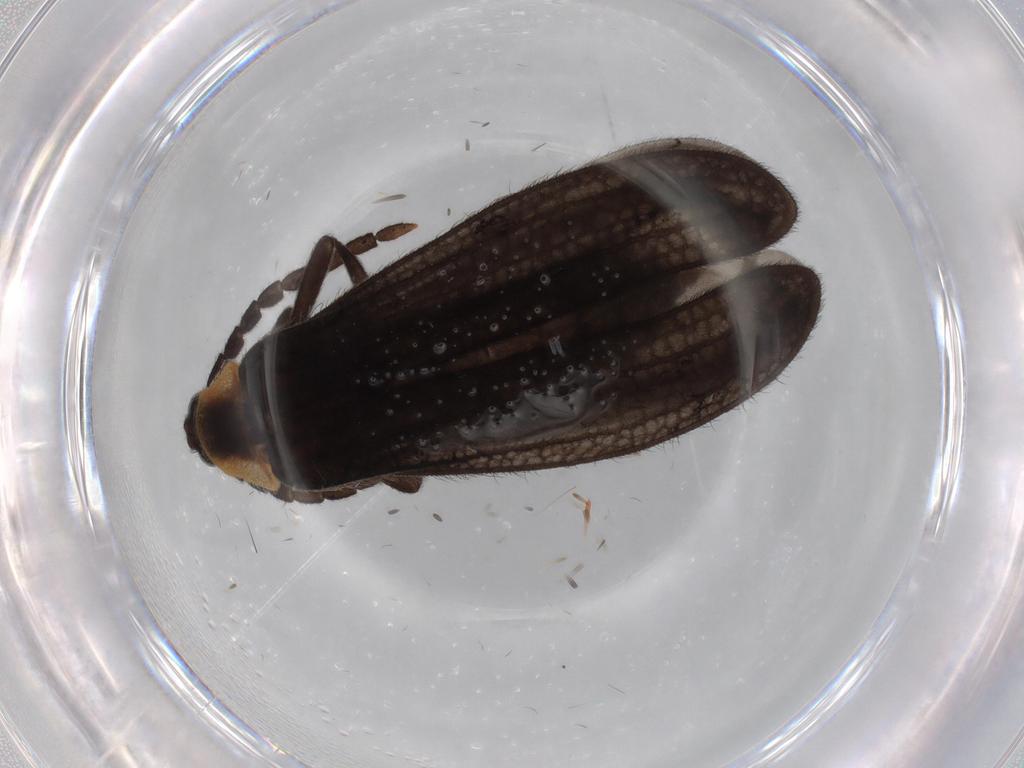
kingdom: Animalia
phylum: Arthropoda
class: Insecta
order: Coleoptera
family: Lycidae
